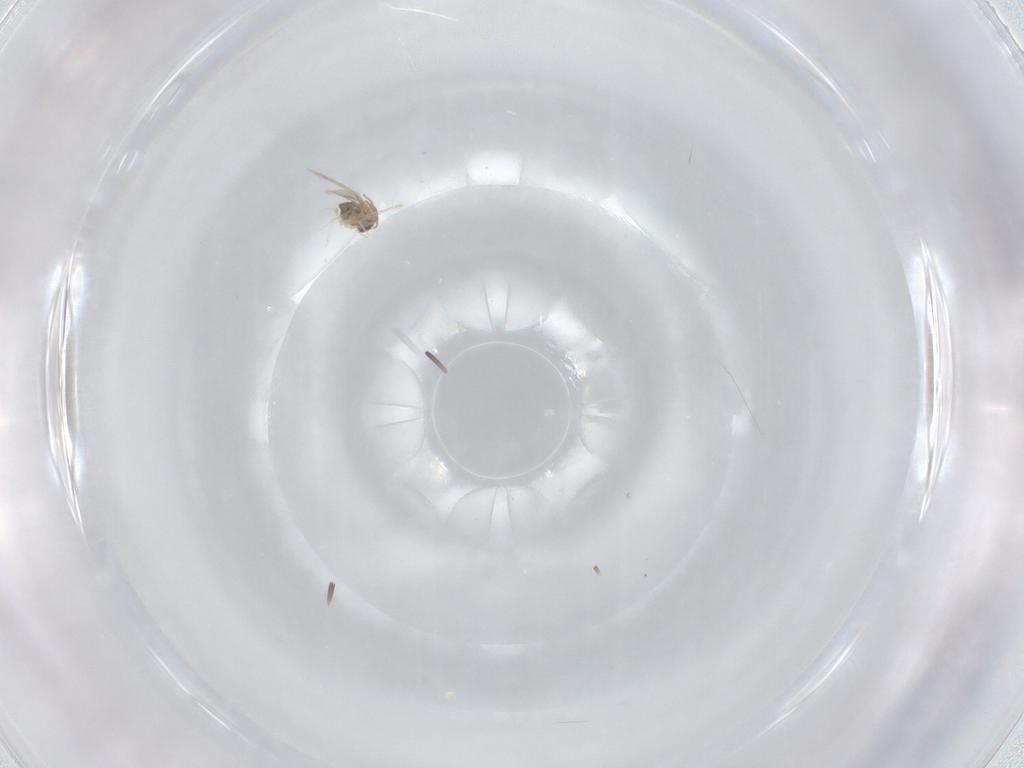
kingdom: Animalia
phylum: Arthropoda
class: Insecta
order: Diptera
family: Cecidomyiidae
